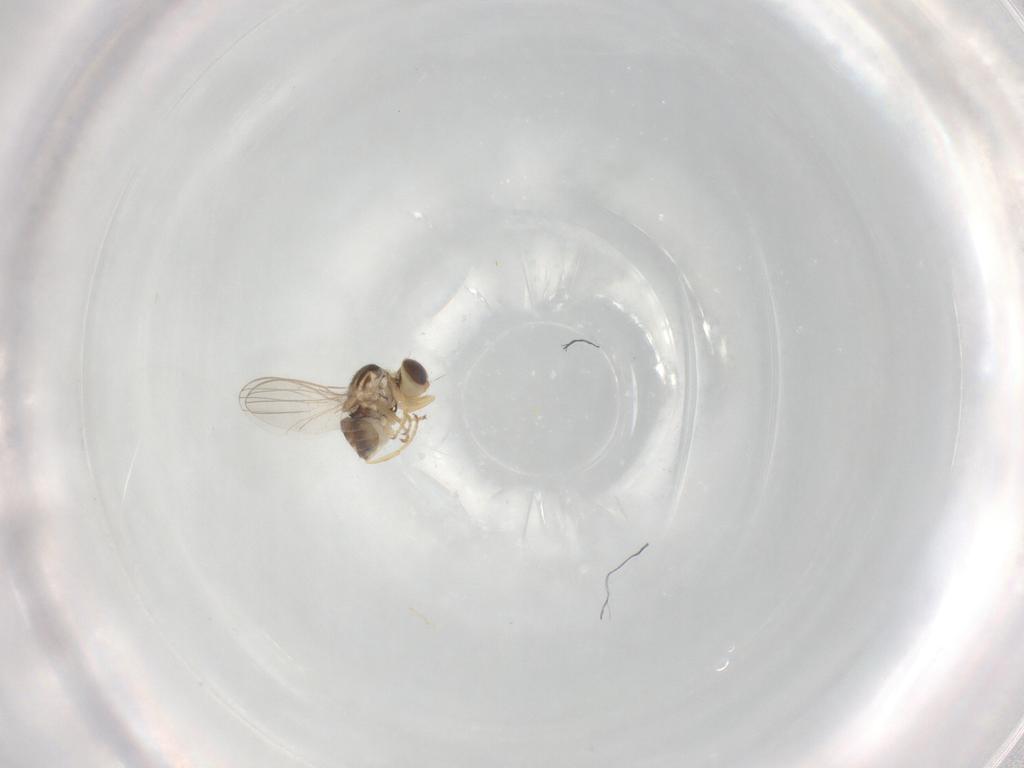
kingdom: Animalia
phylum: Arthropoda
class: Insecta
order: Diptera
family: Chyromyidae
